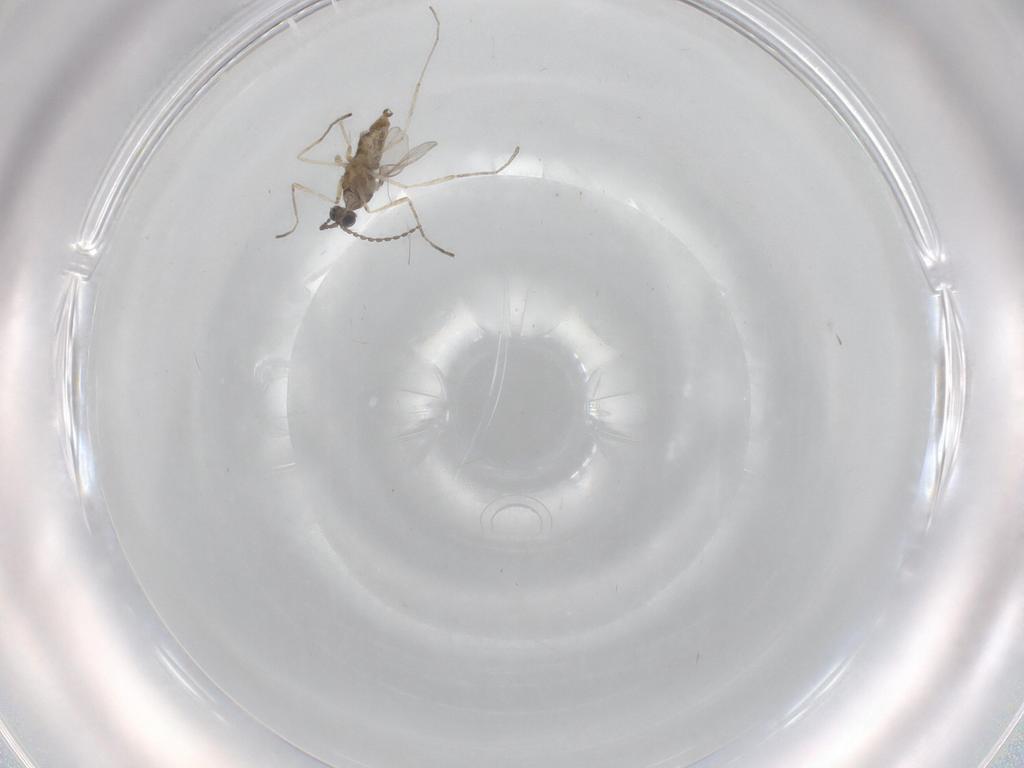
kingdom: Animalia
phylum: Arthropoda
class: Insecta
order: Diptera
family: Cecidomyiidae
